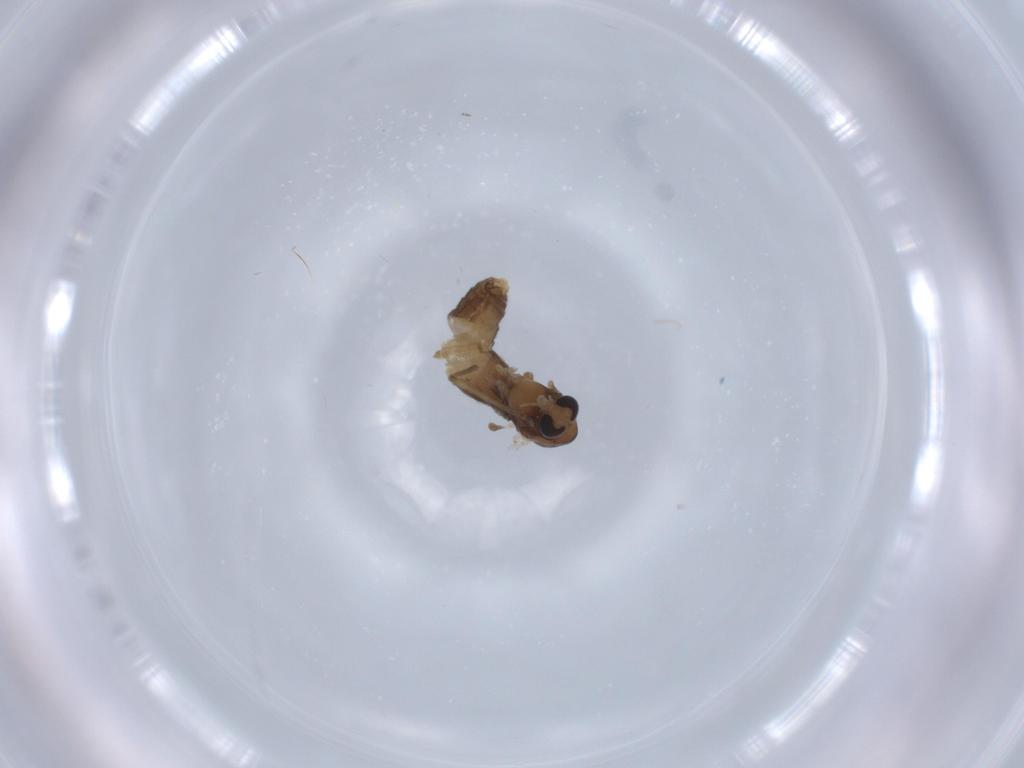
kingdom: Animalia
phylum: Arthropoda
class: Insecta
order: Diptera
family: Chironomidae
